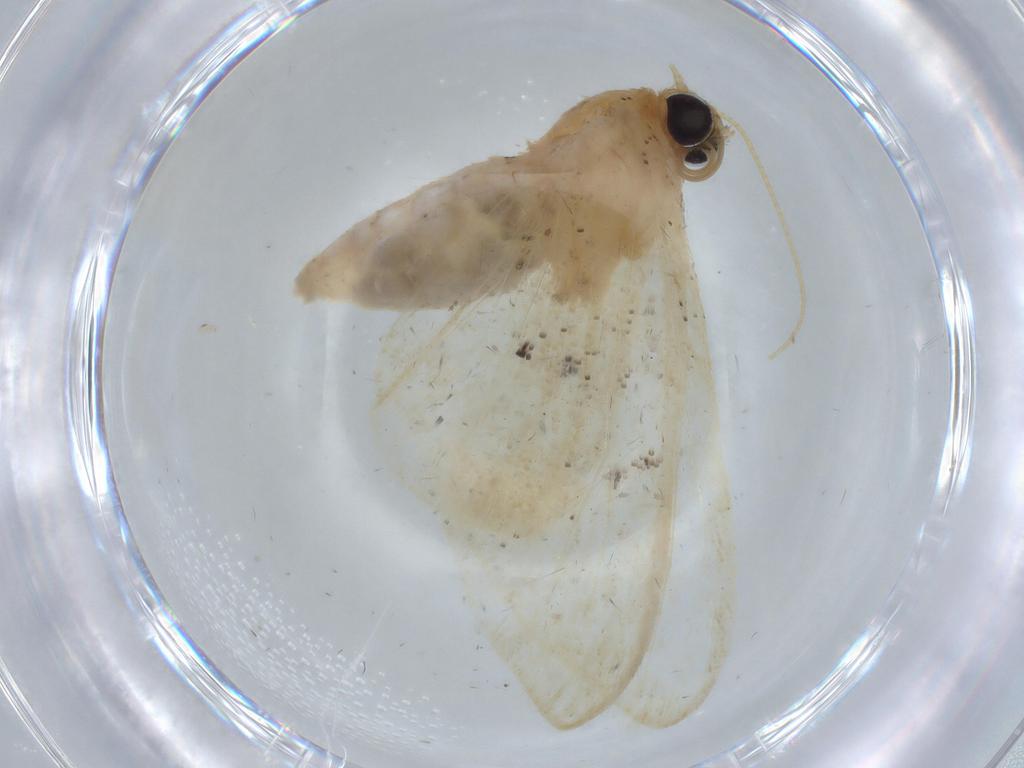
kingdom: Animalia
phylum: Arthropoda
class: Insecta
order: Lepidoptera
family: Tineidae
